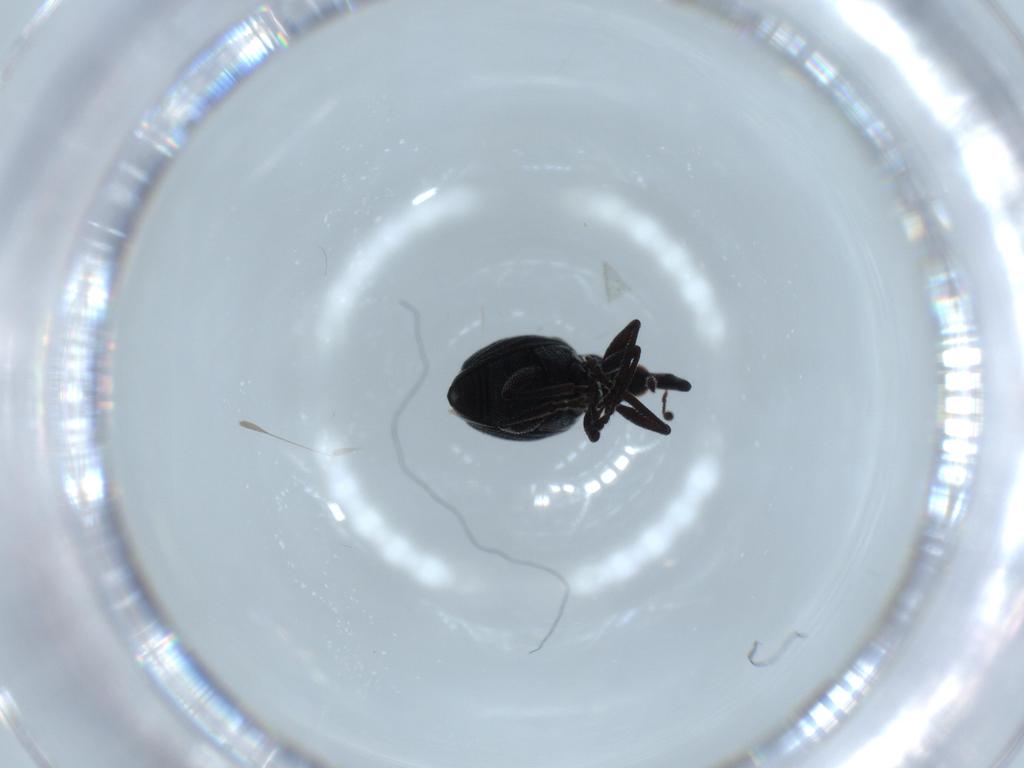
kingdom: Animalia
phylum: Arthropoda
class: Insecta
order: Coleoptera
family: Brentidae
